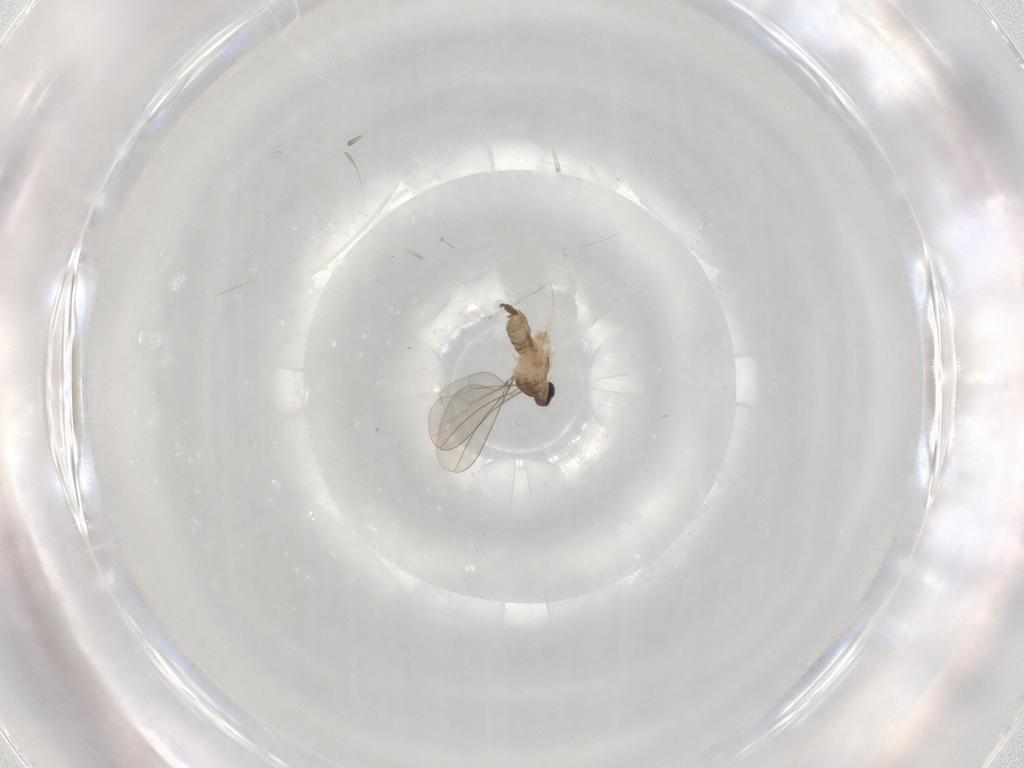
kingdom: Animalia
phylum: Arthropoda
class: Insecta
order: Diptera
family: Cecidomyiidae
